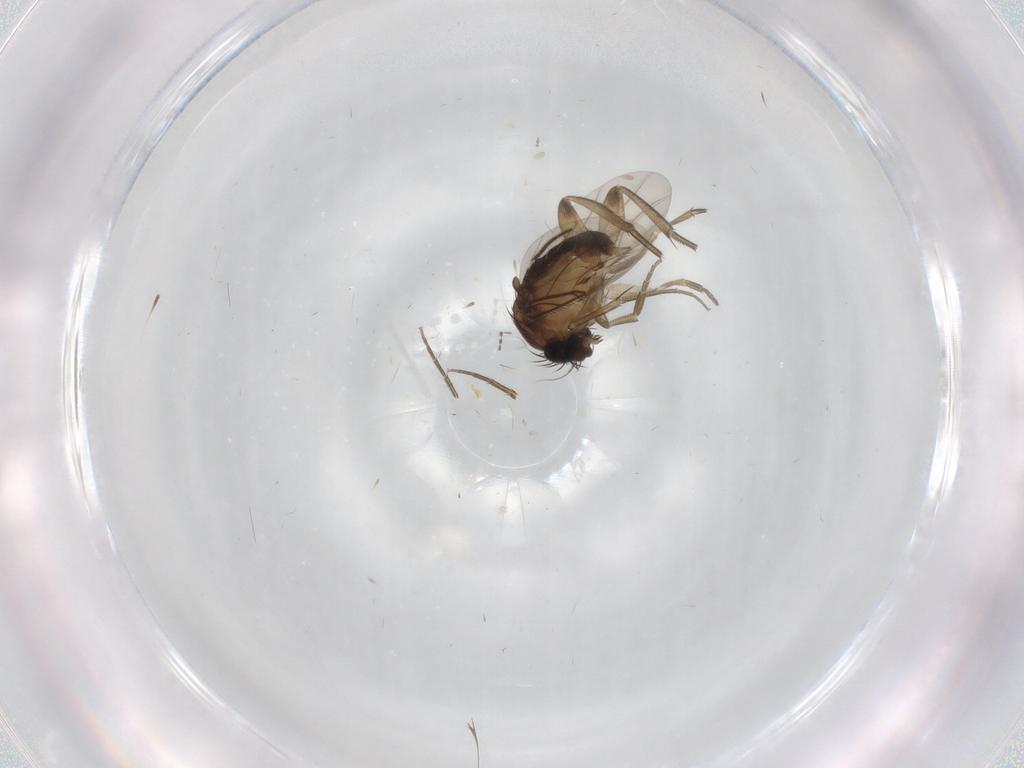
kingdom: Animalia
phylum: Arthropoda
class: Insecta
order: Diptera
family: Phoridae
